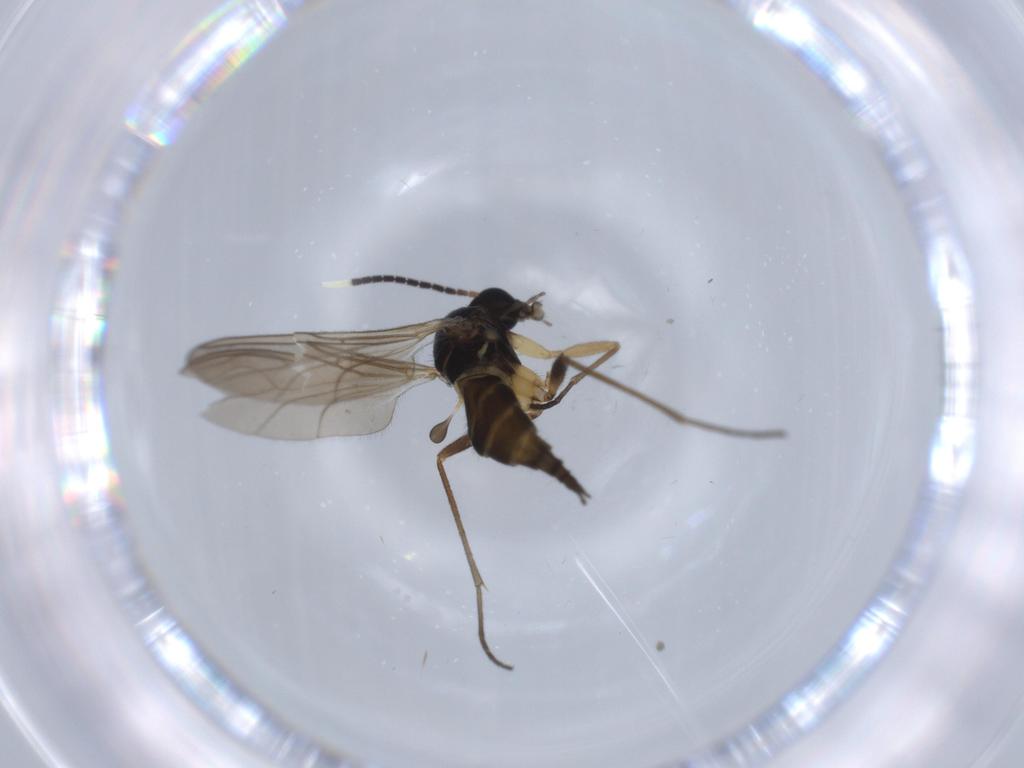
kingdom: Animalia
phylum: Arthropoda
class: Insecta
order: Diptera
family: Sciaridae
